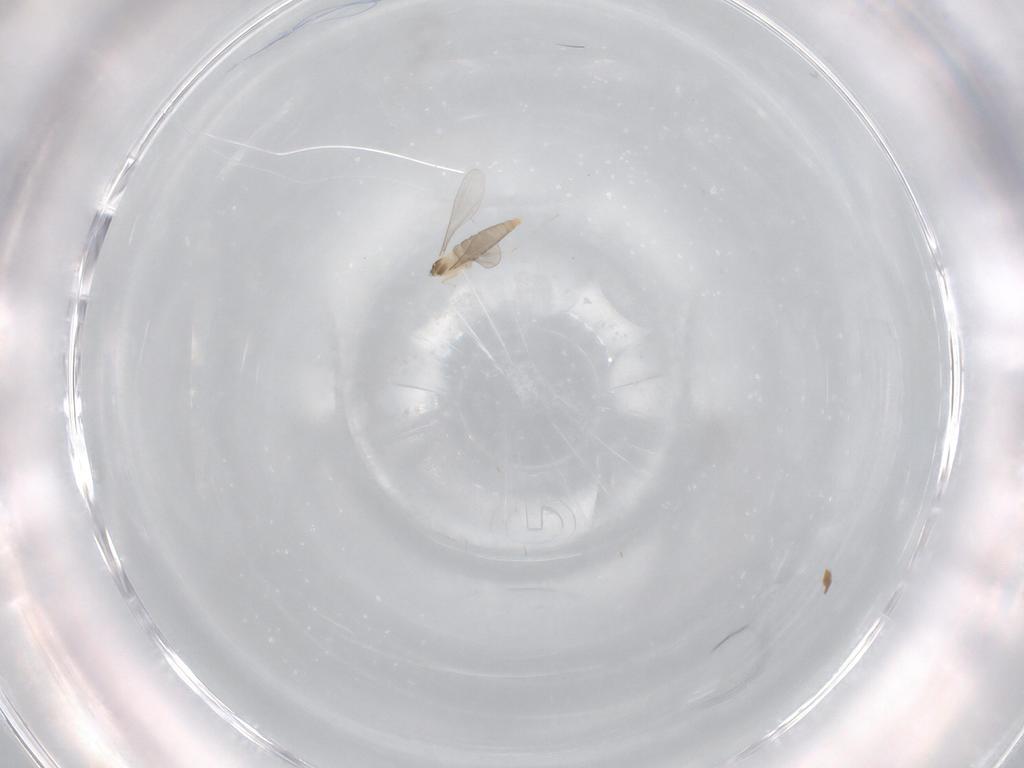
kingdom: Animalia
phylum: Arthropoda
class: Insecta
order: Diptera
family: Cecidomyiidae
